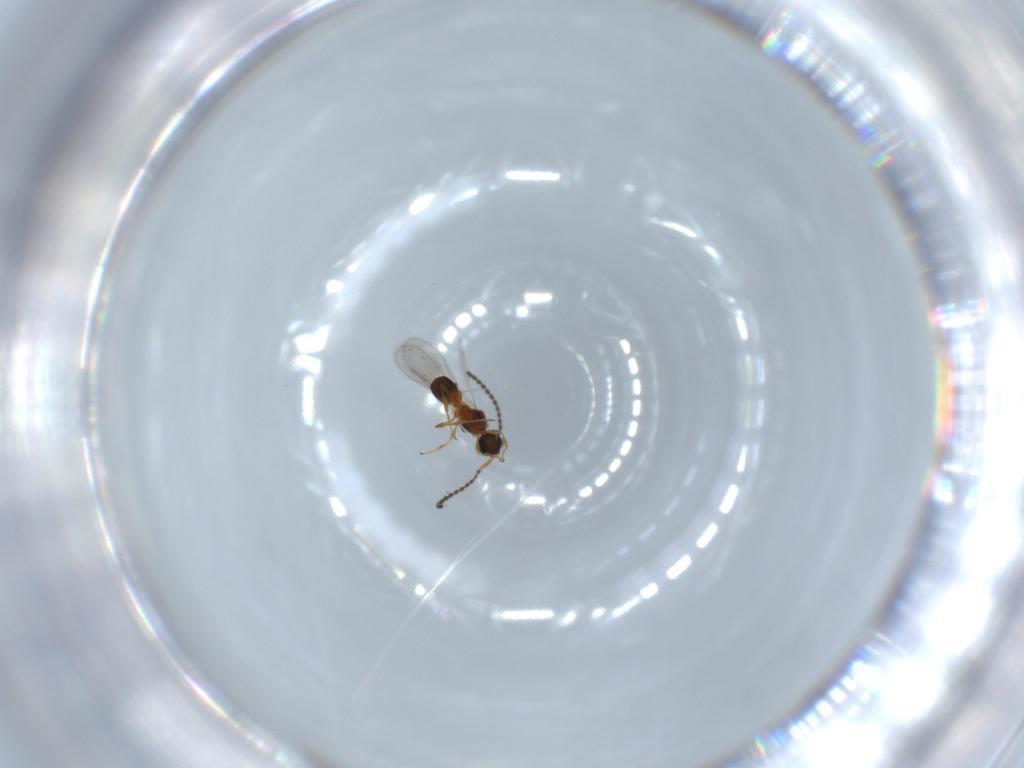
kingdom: Animalia
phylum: Arthropoda
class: Insecta
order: Hymenoptera
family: Diapriidae
